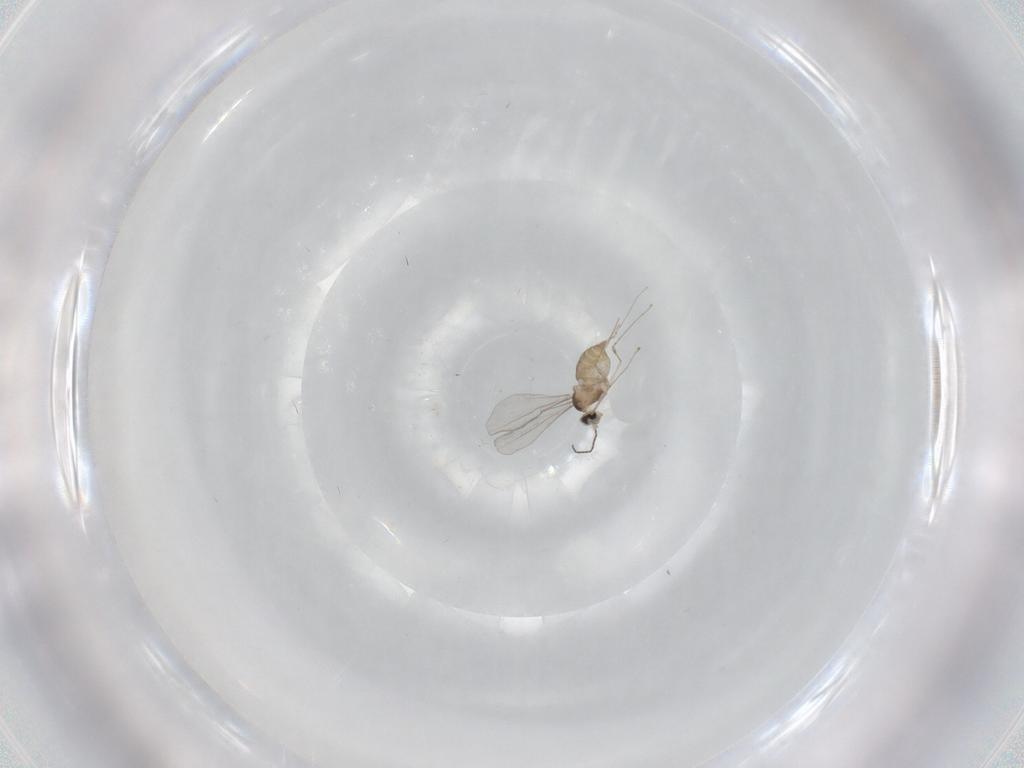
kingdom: Animalia
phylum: Arthropoda
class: Insecta
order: Diptera
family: Cecidomyiidae
